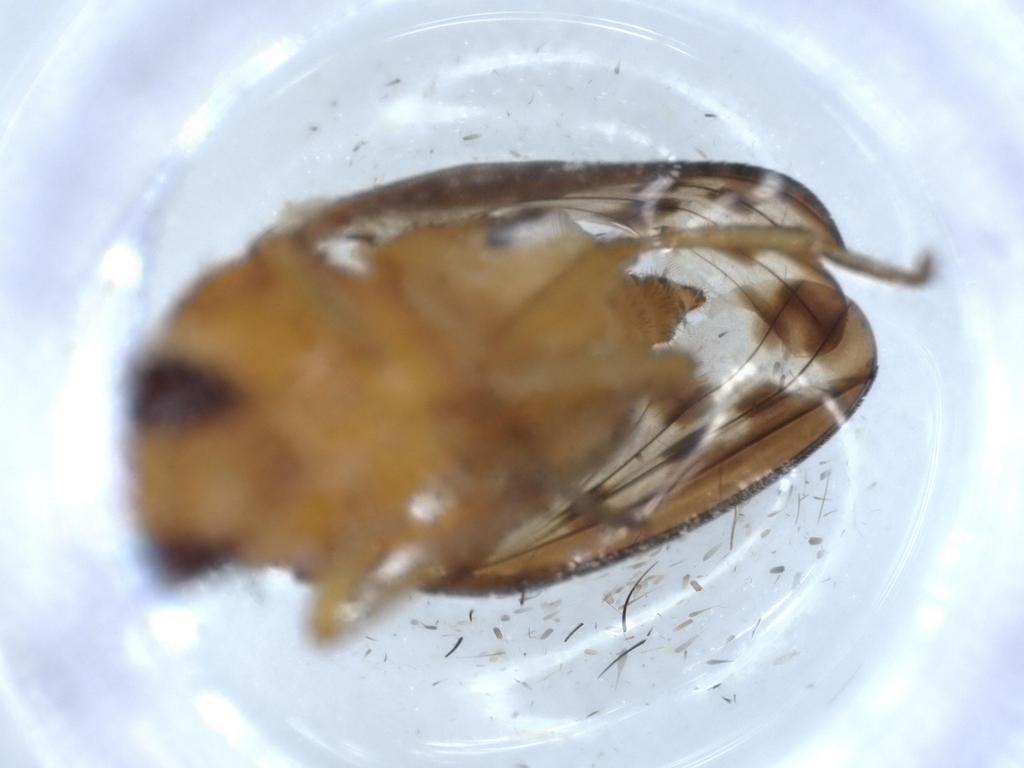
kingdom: Animalia
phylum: Arthropoda
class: Insecta
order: Diptera
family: Sciaridae
